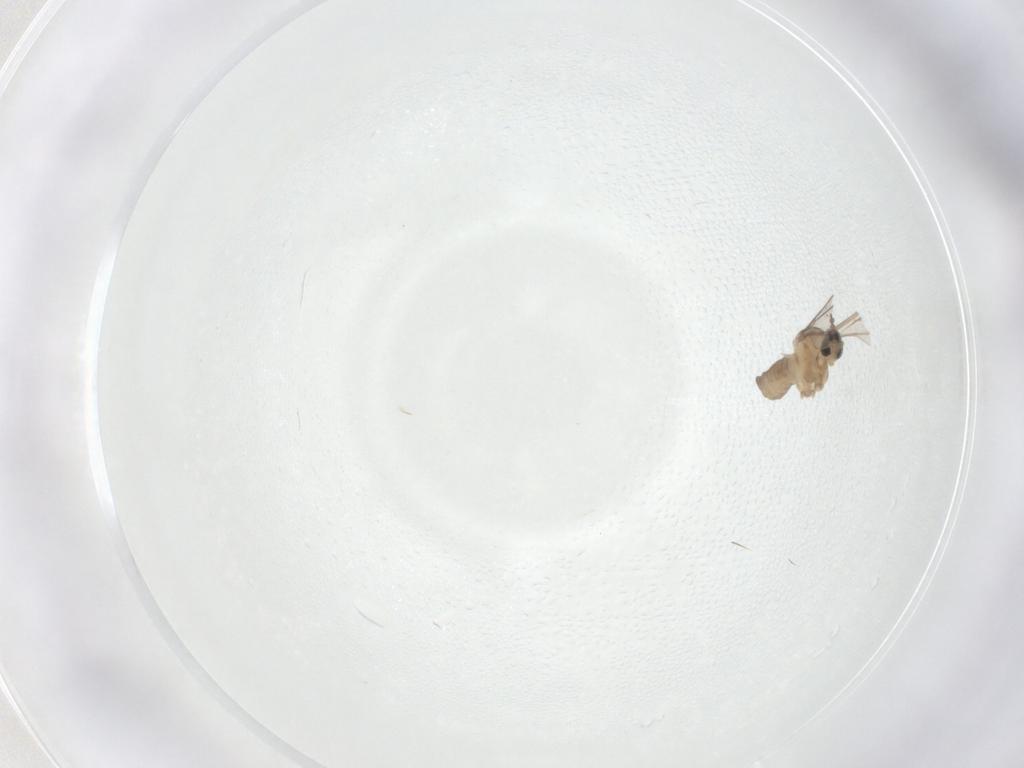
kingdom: Animalia
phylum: Arthropoda
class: Insecta
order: Diptera
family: Cecidomyiidae
